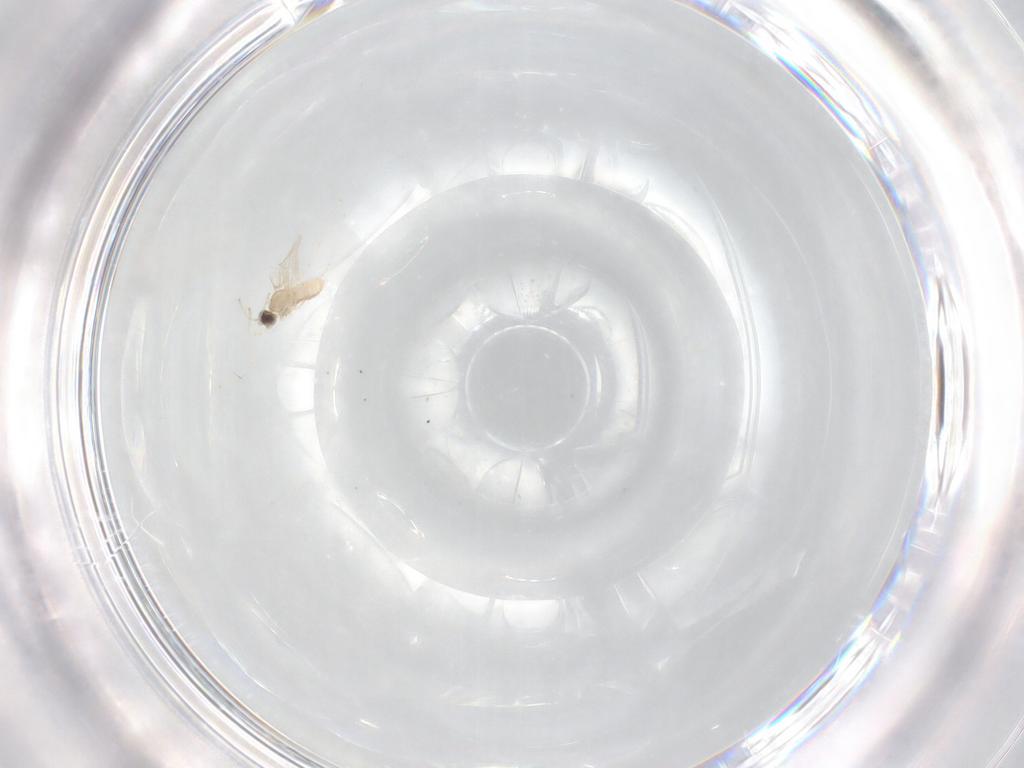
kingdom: Animalia
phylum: Arthropoda
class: Insecta
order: Diptera
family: Cecidomyiidae
